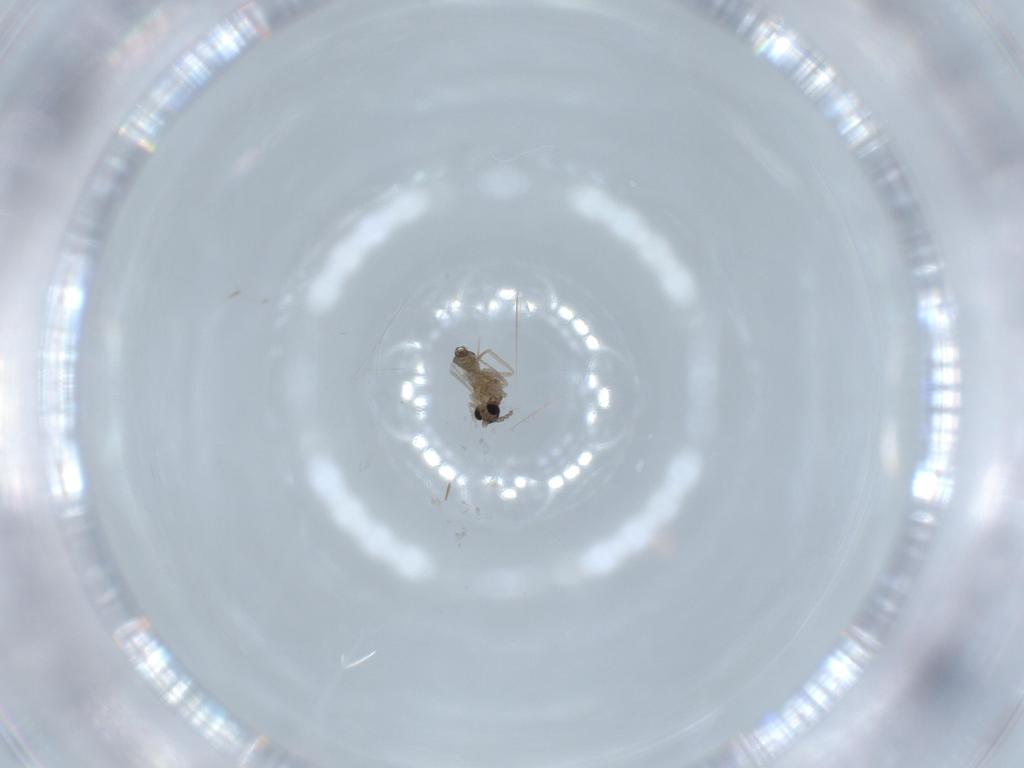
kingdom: Animalia
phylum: Arthropoda
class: Insecta
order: Diptera
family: Cecidomyiidae
